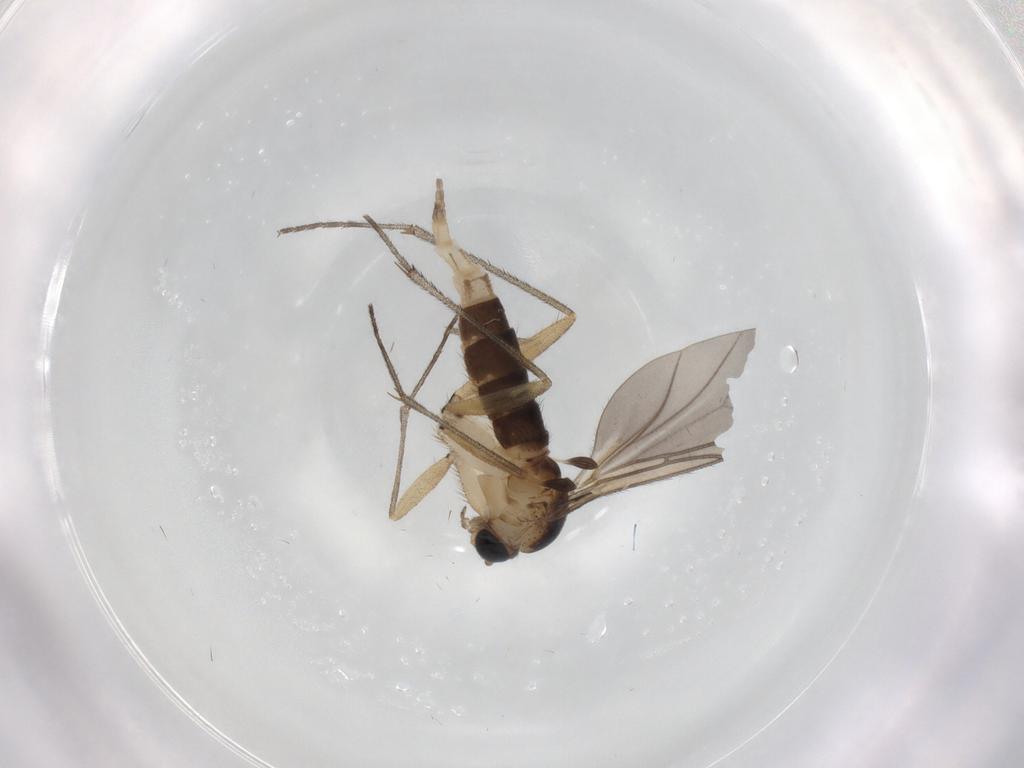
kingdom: Animalia
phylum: Arthropoda
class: Insecta
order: Diptera
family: Sciaridae
